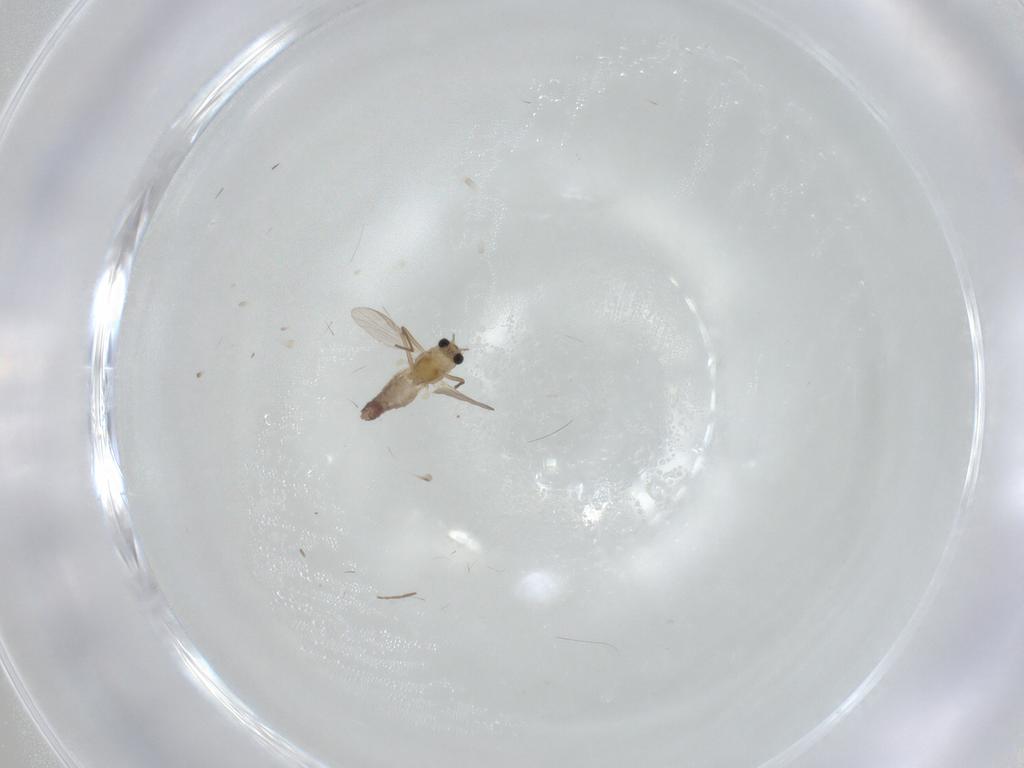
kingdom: Animalia
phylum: Arthropoda
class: Insecta
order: Diptera
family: Chironomidae
